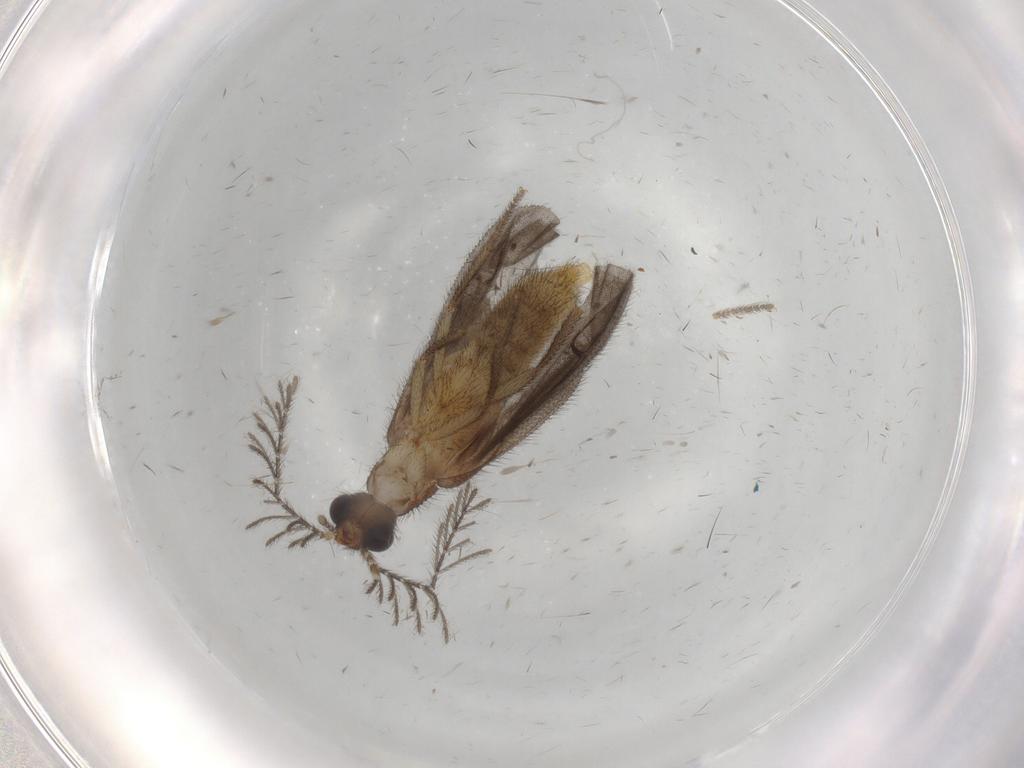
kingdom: Animalia
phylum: Arthropoda
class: Insecta
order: Coleoptera
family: Phengodidae
